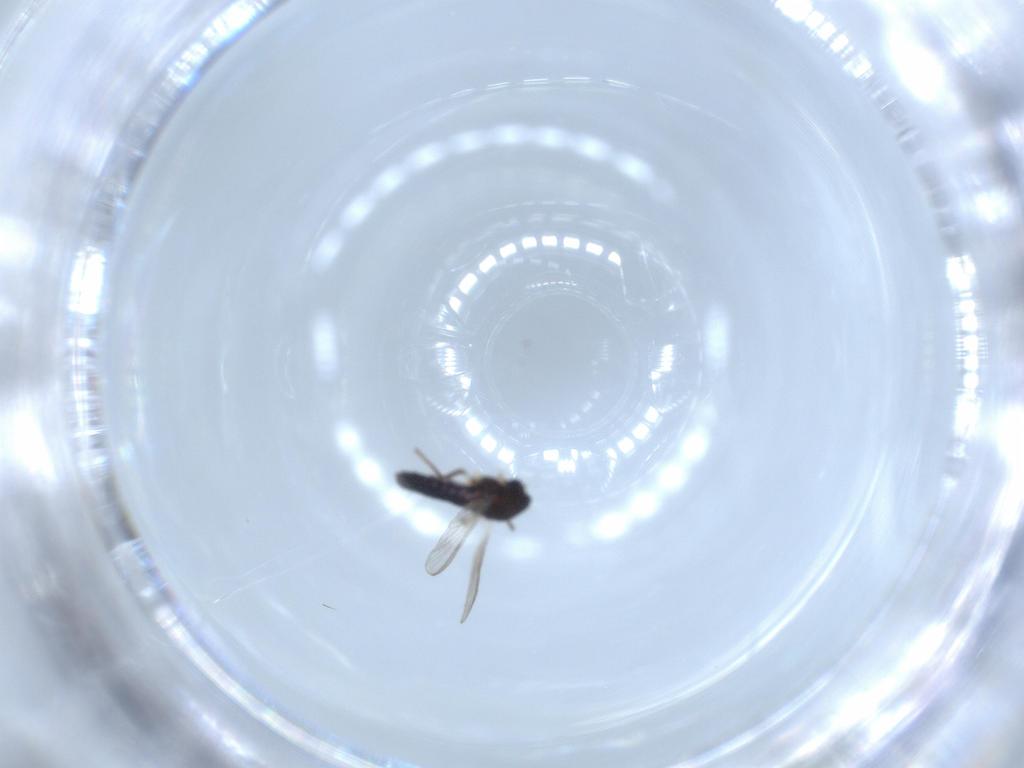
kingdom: Animalia
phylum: Arthropoda
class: Insecta
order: Diptera
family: Chironomidae
